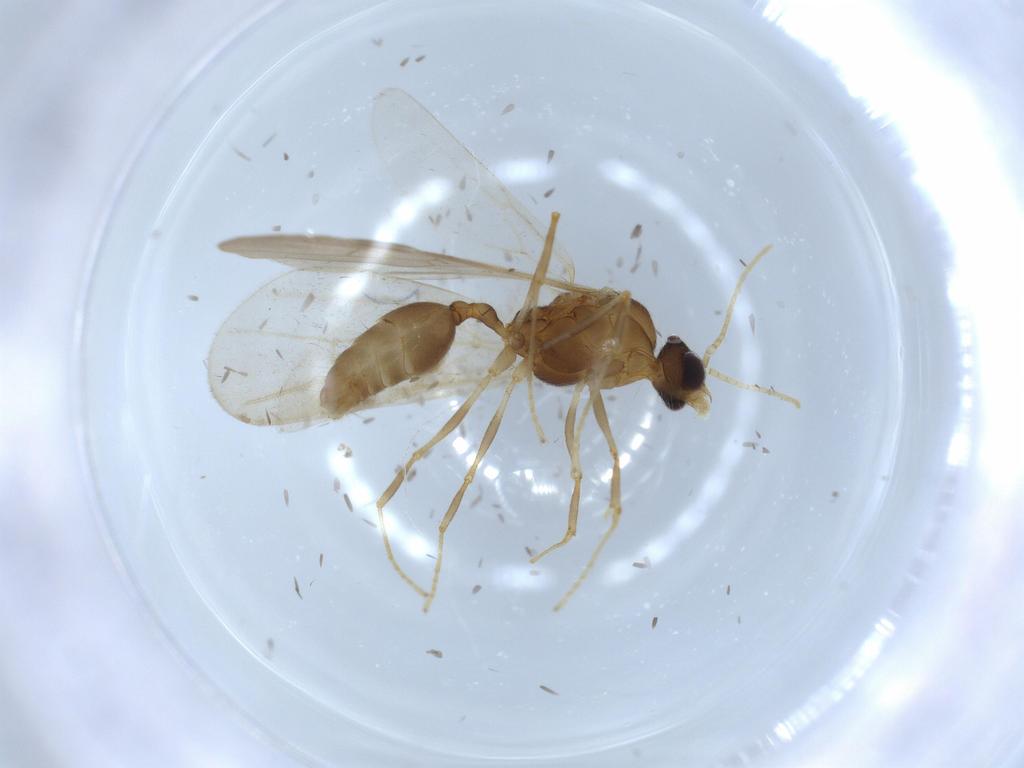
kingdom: Animalia
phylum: Arthropoda
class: Insecta
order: Hymenoptera
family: Formicidae
